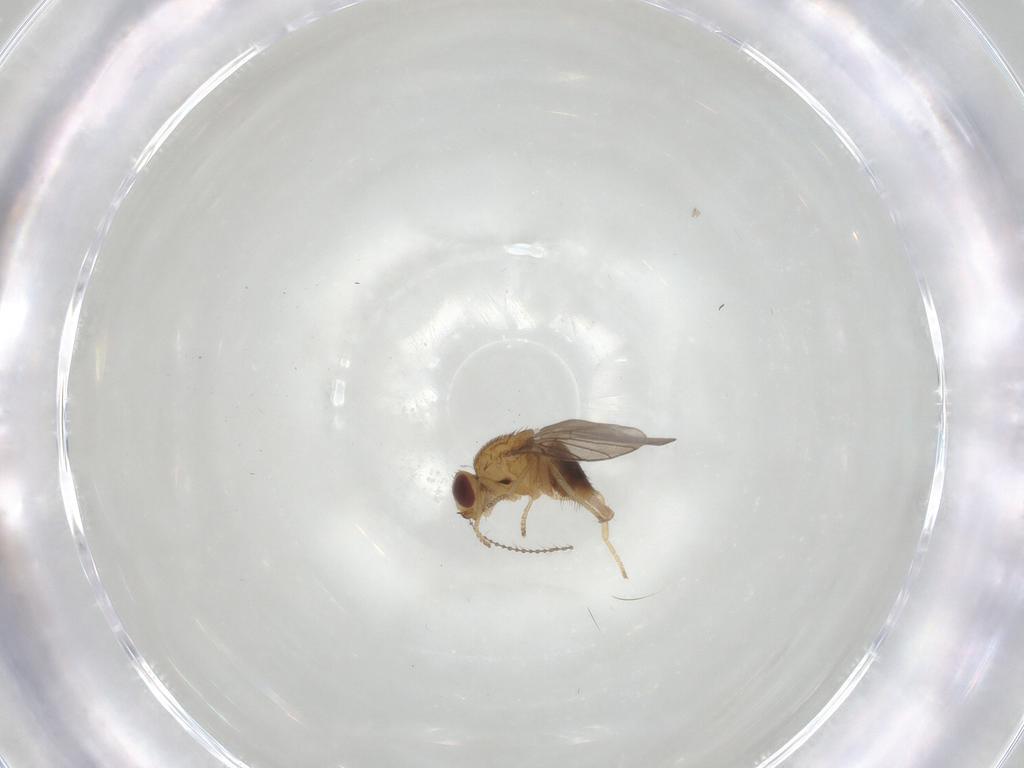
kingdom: Animalia
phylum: Arthropoda
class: Insecta
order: Diptera
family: Chloropidae
